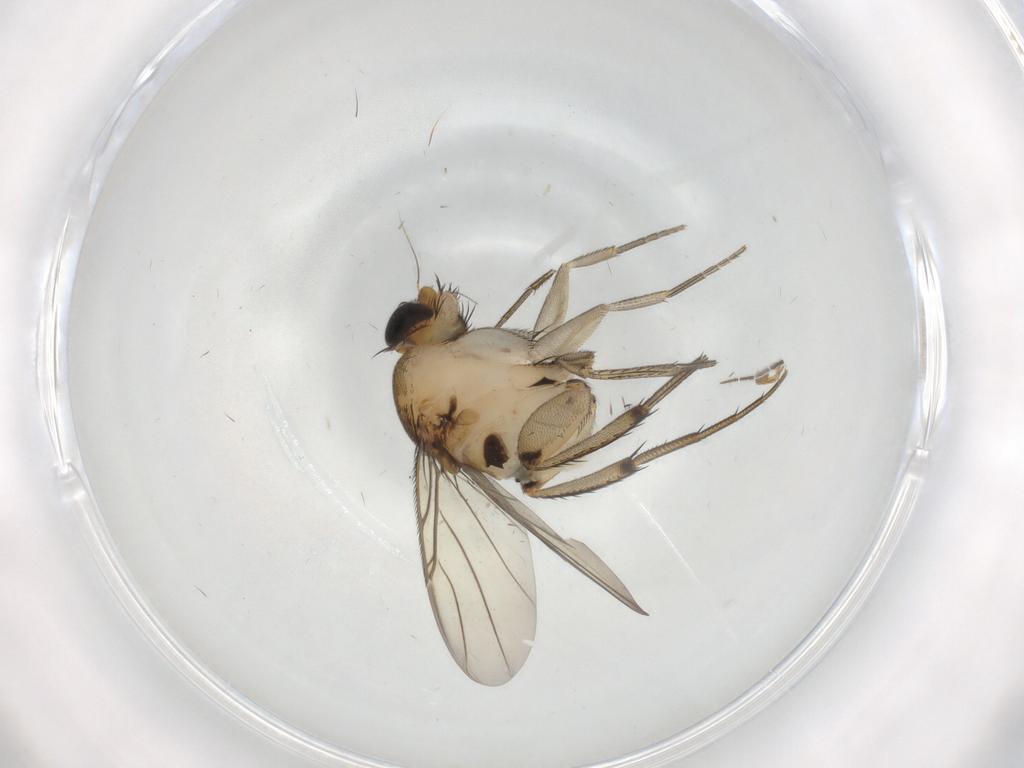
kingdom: Animalia
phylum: Arthropoda
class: Insecta
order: Diptera
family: Phoridae
